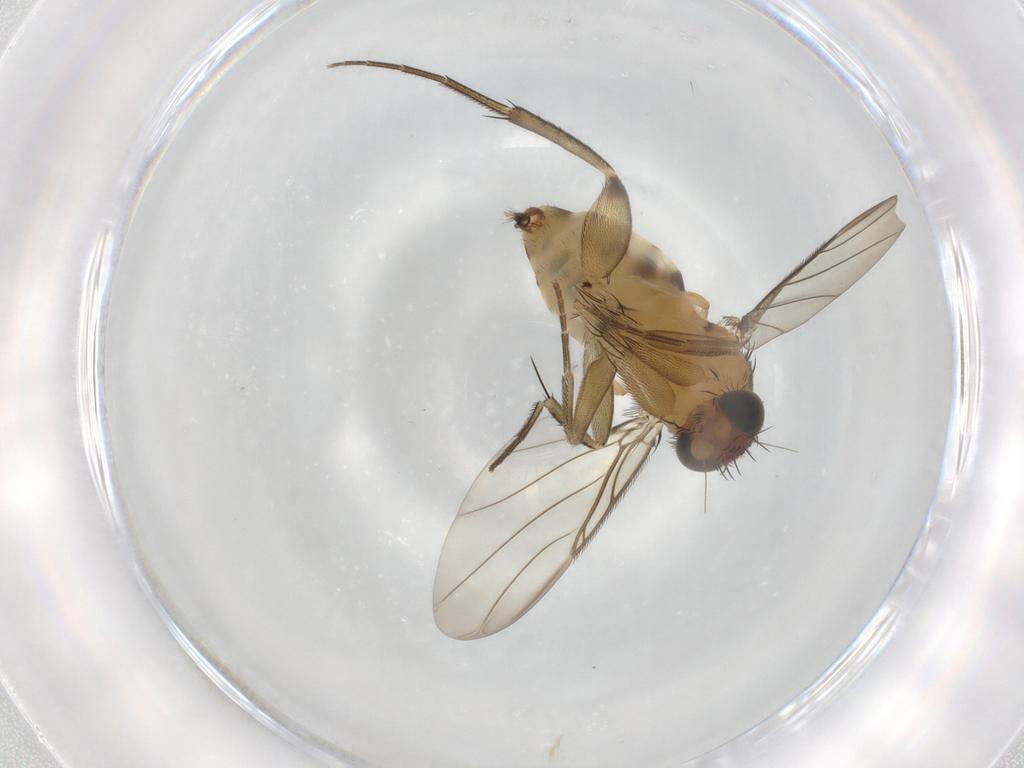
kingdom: Animalia
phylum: Arthropoda
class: Insecta
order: Diptera
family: Phoridae
